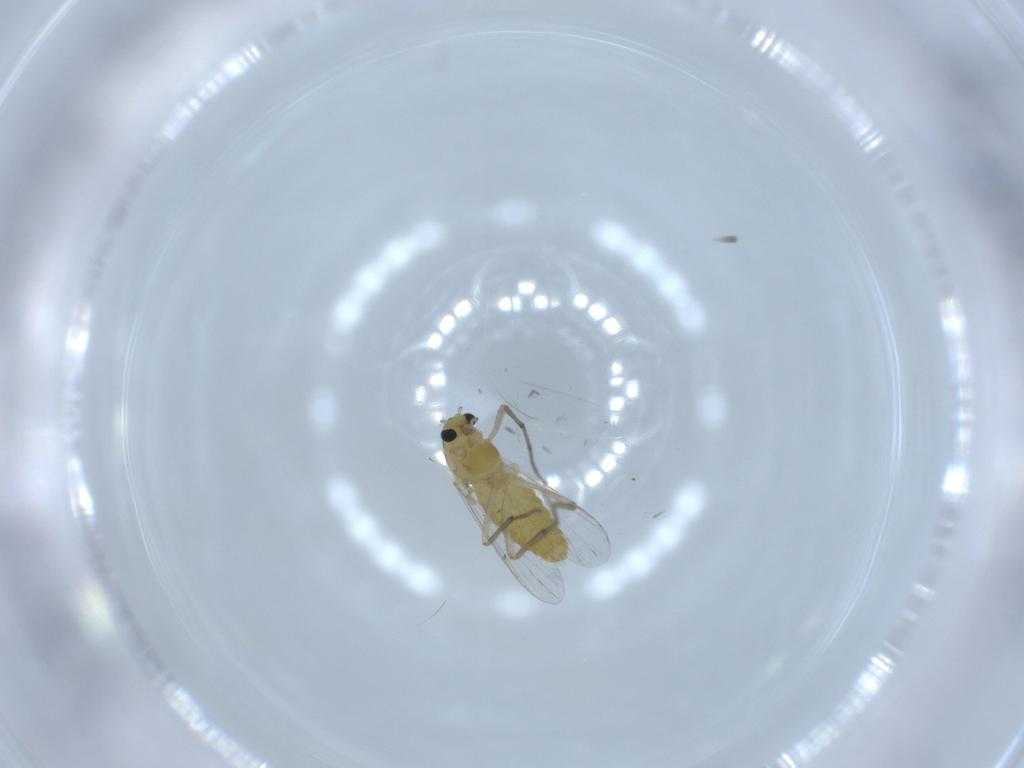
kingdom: Animalia
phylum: Arthropoda
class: Insecta
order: Diptera
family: Chironomidae
